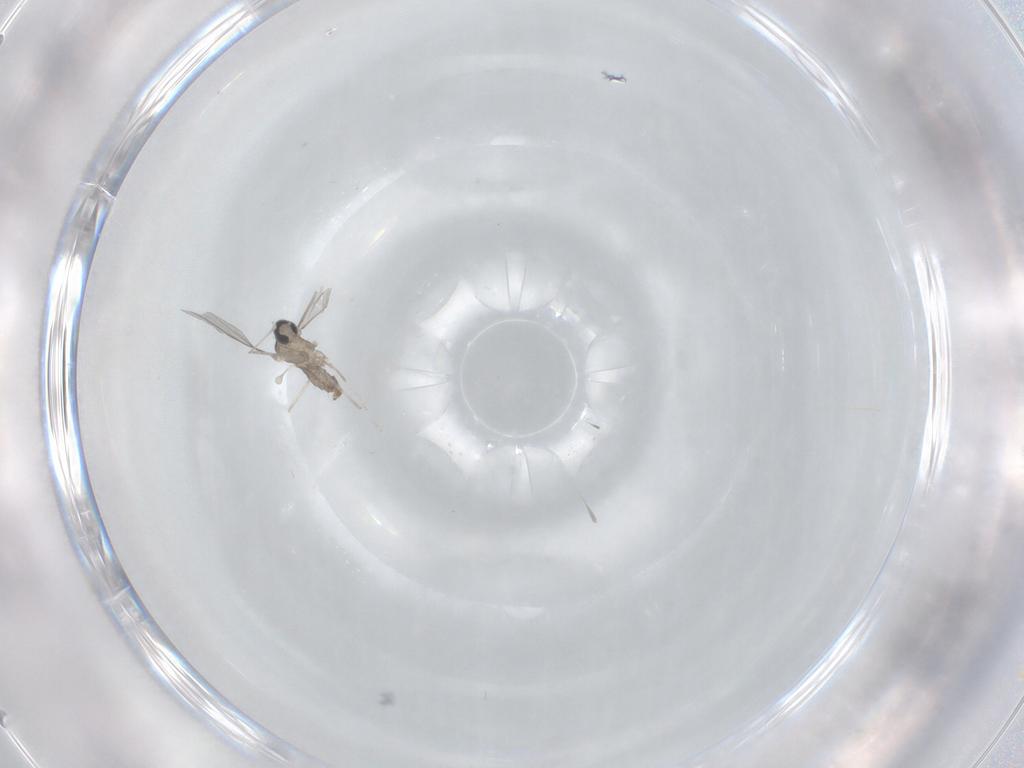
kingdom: Animalia
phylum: Arthropoda
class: Insecta
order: Diptera
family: Cecidomyiidae
